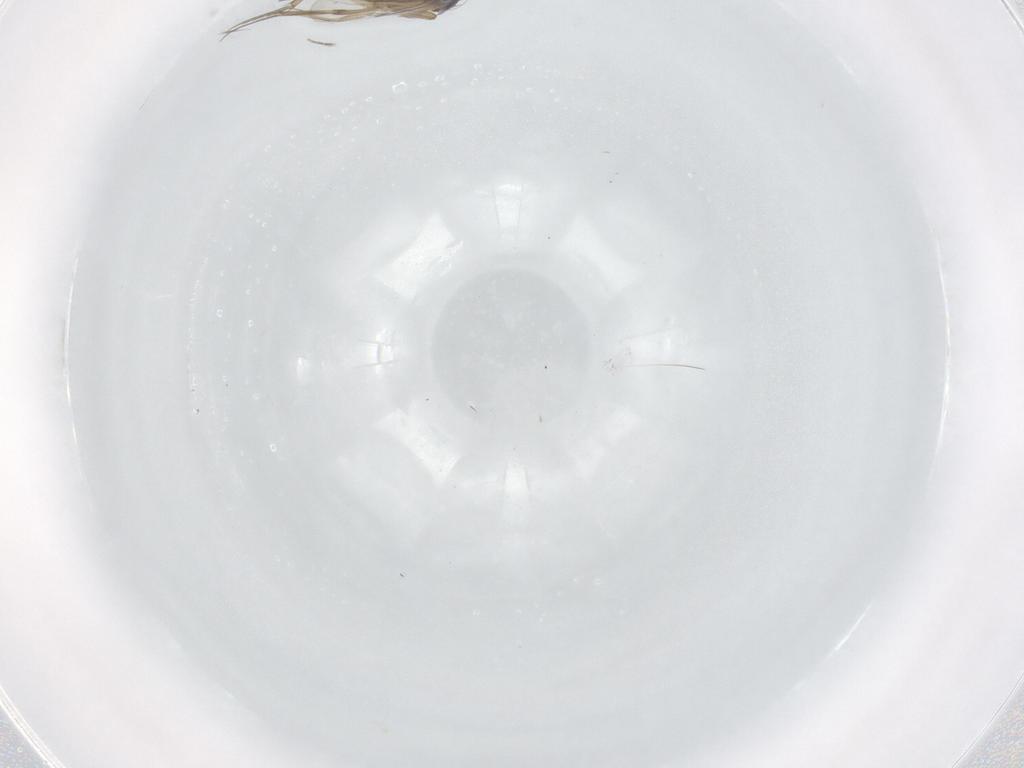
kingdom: Animalia
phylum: Arthropoda
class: Insecta
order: Diptera
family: Phoridae
